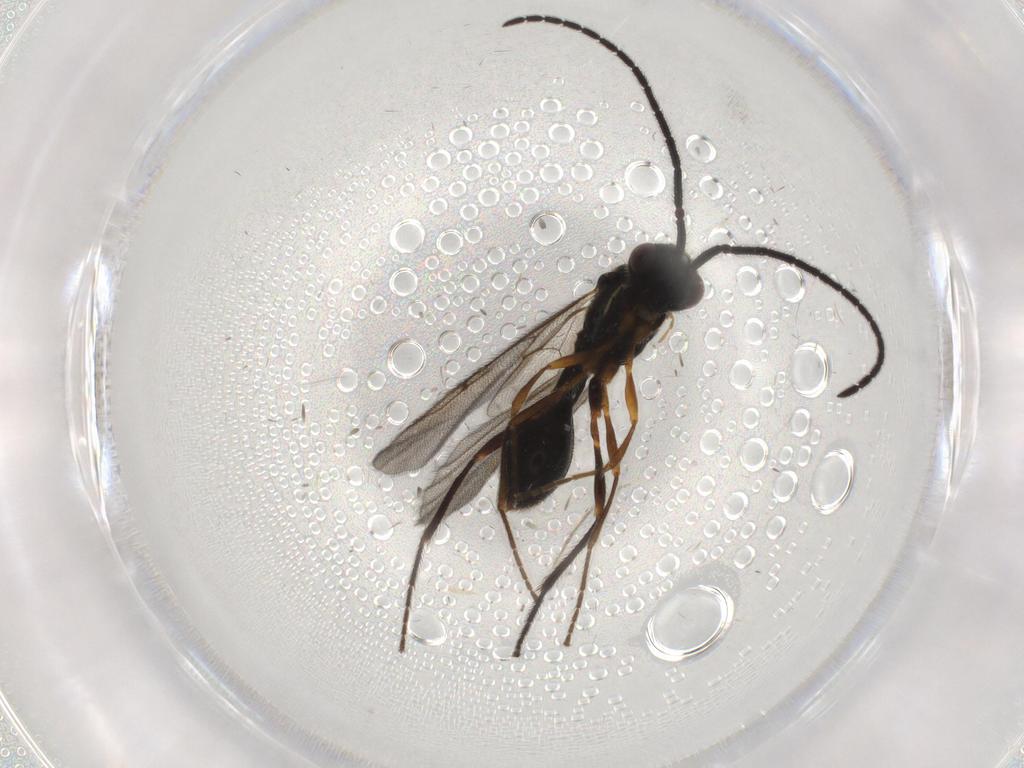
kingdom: Animalia
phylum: Arthropoda
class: Insecta
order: Hymenoptera
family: Diapriidae
